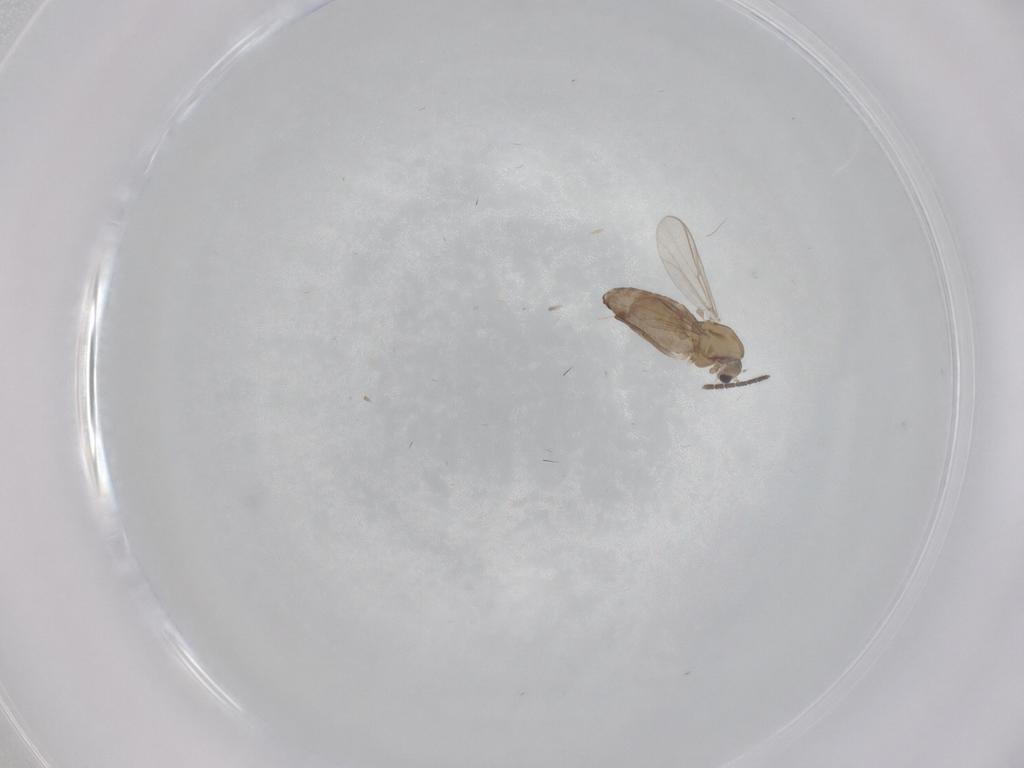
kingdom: Animalia
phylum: Arthropoda
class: Insecta
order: Diptera
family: Chironomidae
